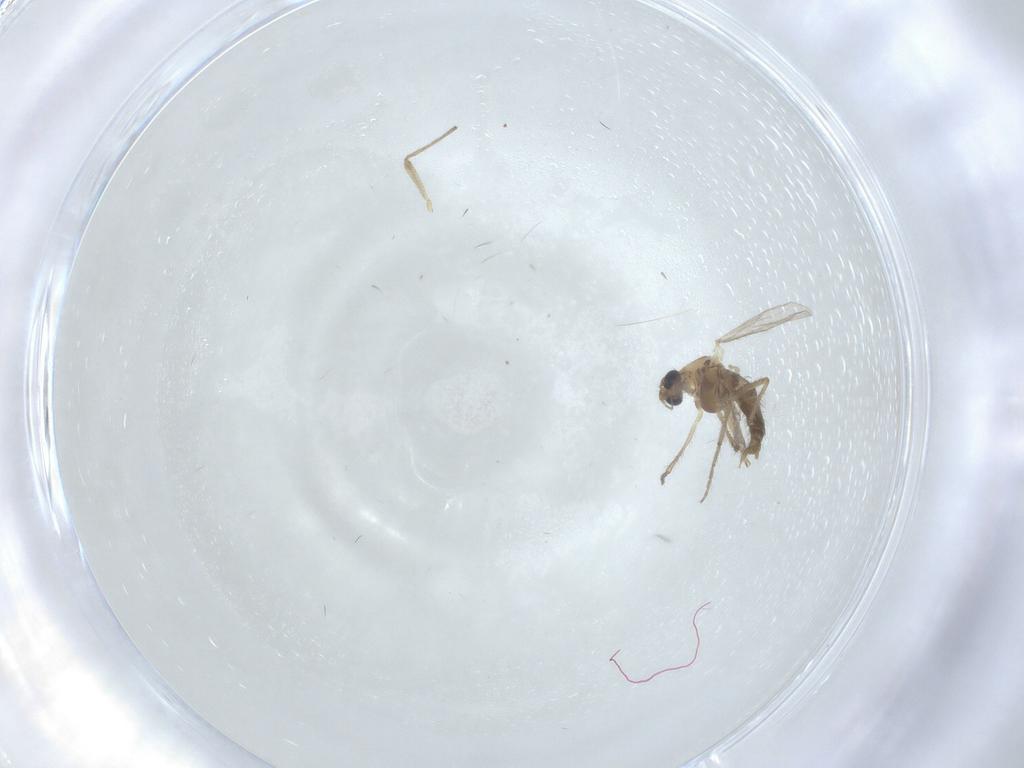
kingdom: Animalia
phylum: Arthropoda
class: Insecta
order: Diptera
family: Chironomidae
